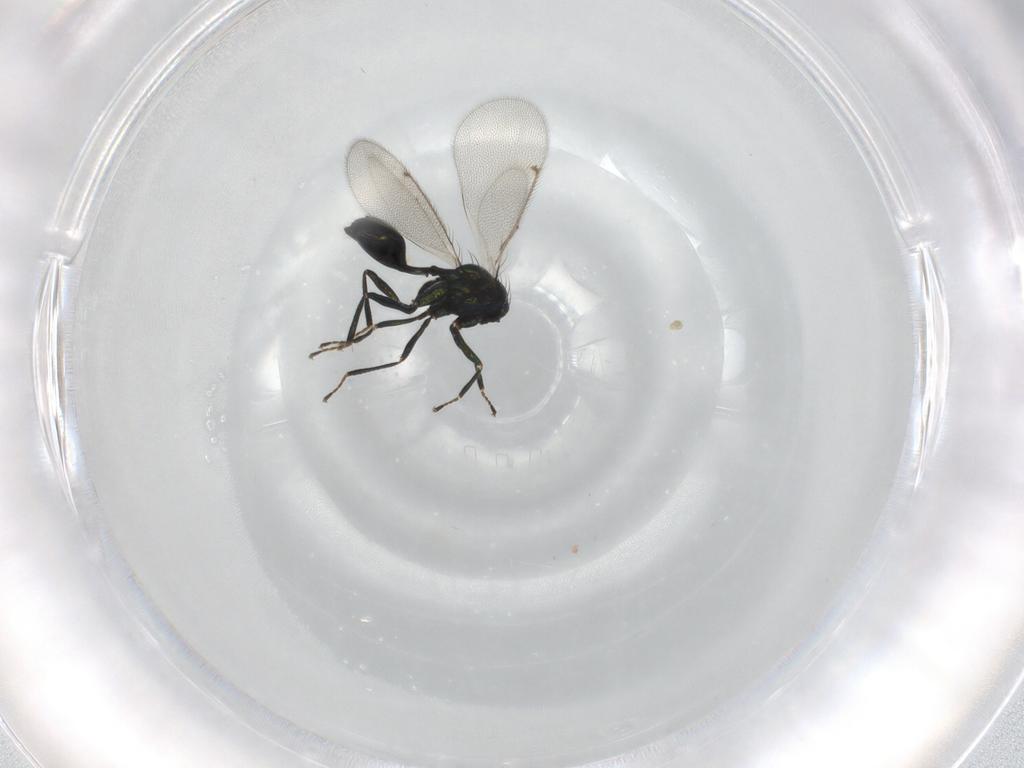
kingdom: Animalia
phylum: Arthropoda
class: Insecta
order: Hymenoptera
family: Eulophidae
